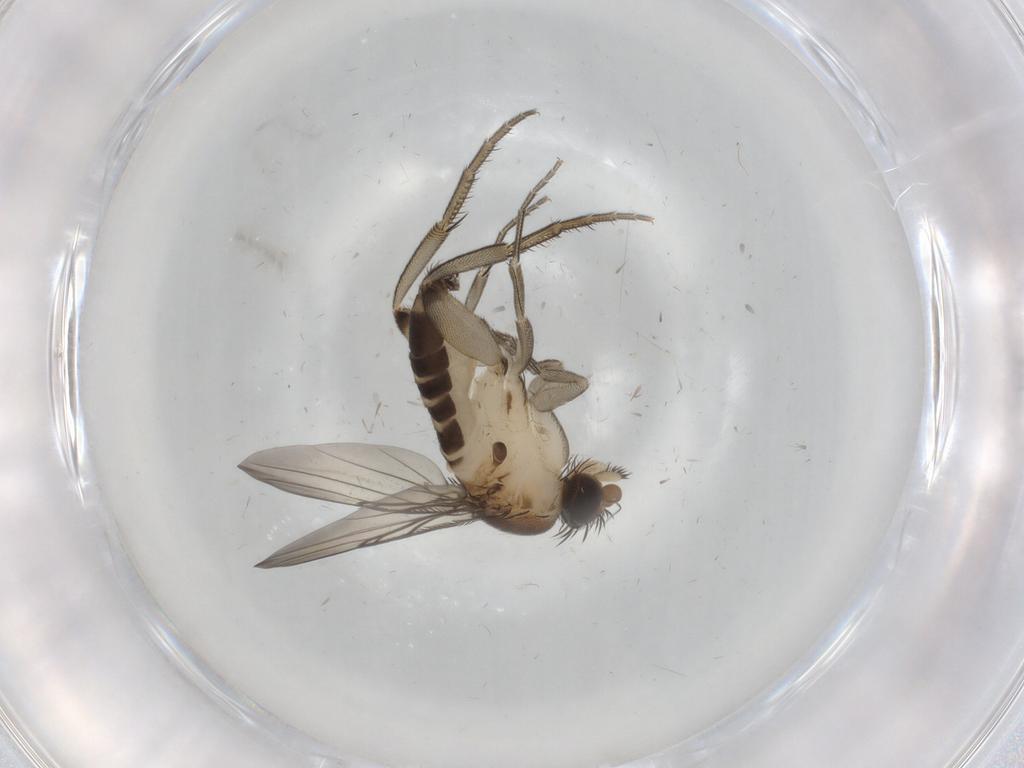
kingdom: Animalia
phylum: Arthropoda
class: Insecta
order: Diptera
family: Phoridae
